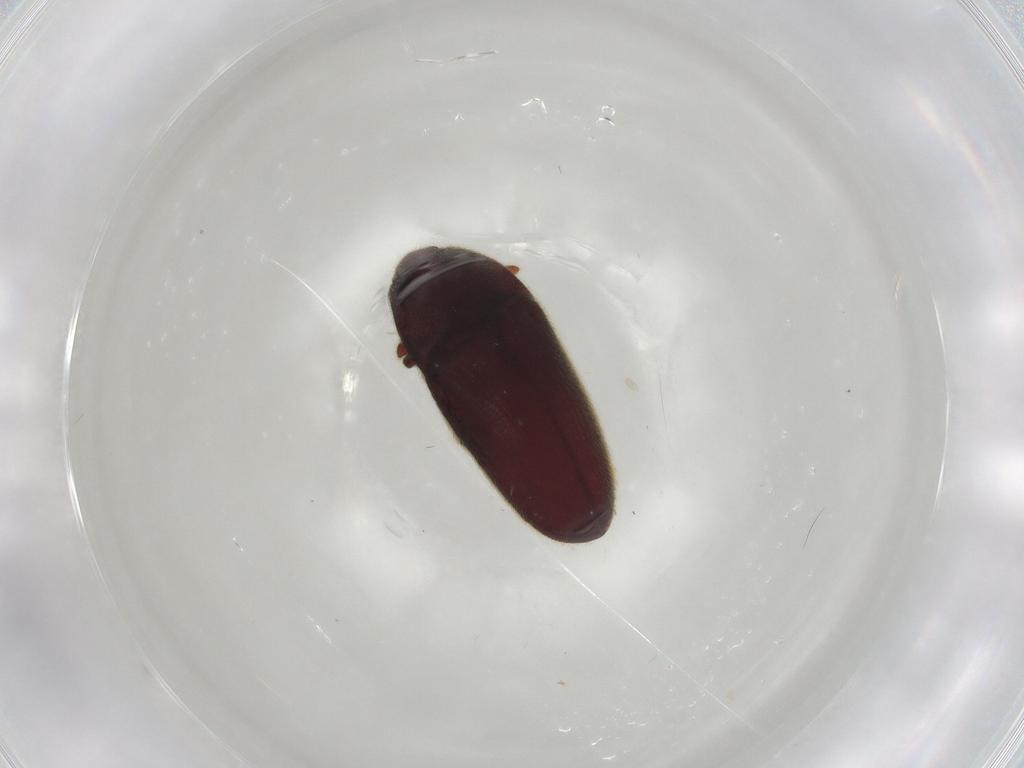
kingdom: Animalia
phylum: Arthropoda
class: Insecta
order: Coleoptera
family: Throscidae
